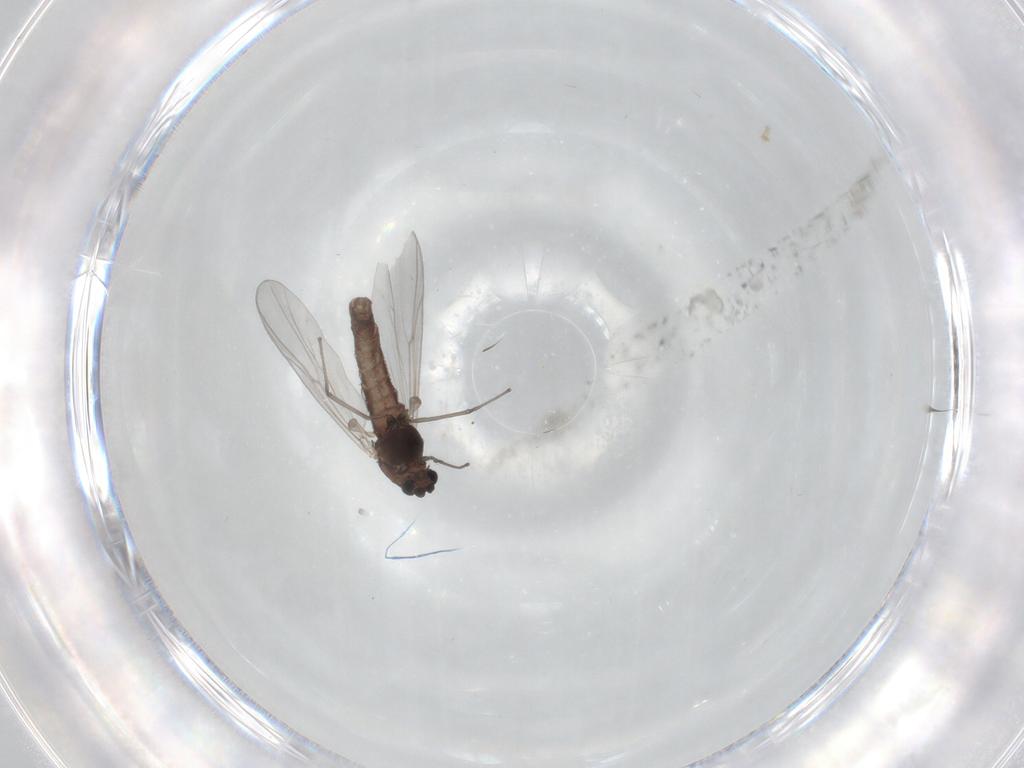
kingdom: Animalia
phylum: Arthropoda
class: Insecta
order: Diptera
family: Chironomidae
